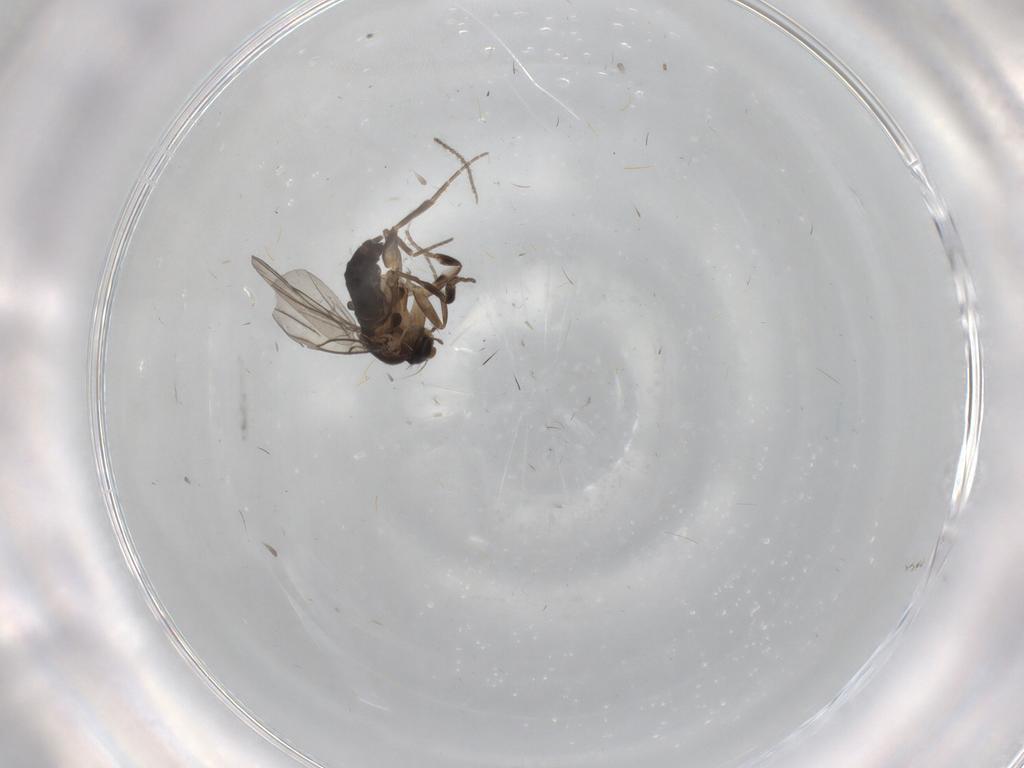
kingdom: Animalia
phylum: Arthropoda
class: Insecta
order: Diptera
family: Phoridae
